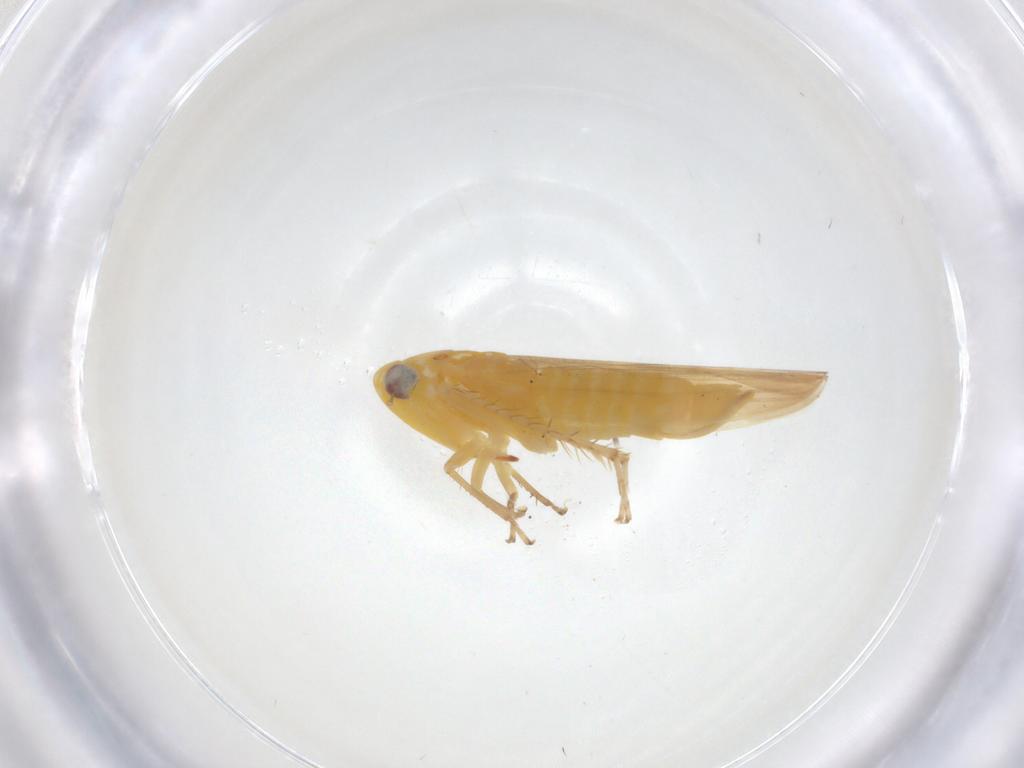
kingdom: Animalia
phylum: Arthropoda
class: Insecta
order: Hemiptera
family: Cicadellidae
